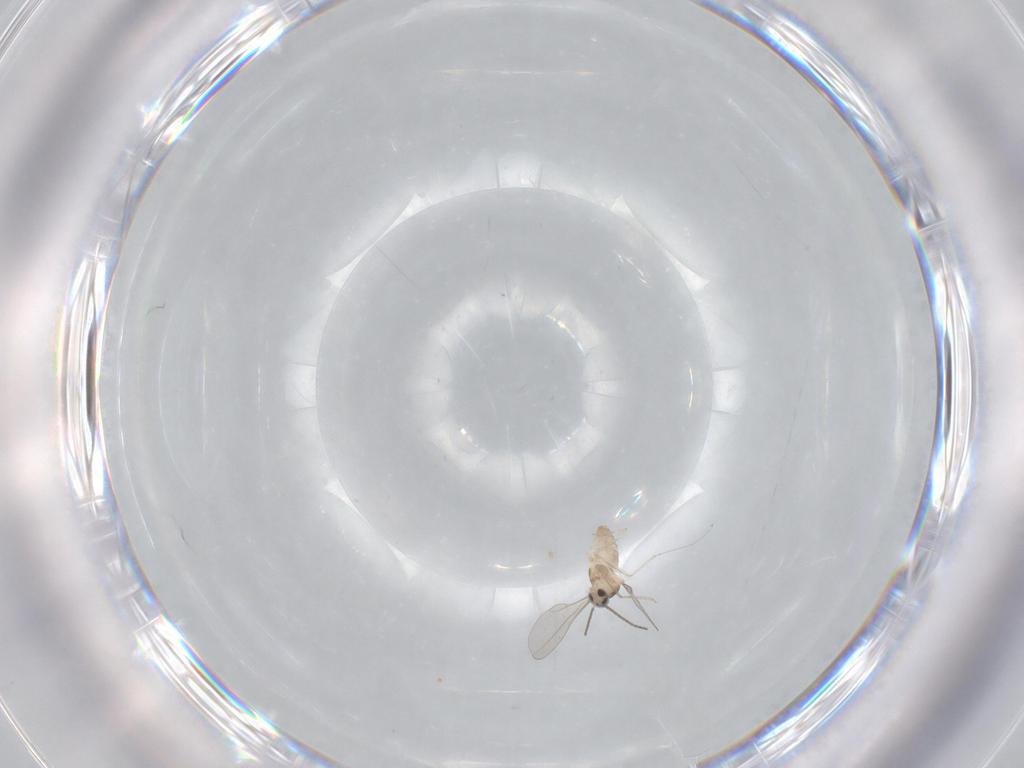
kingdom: Animalia
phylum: Arthropoda
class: Insecta
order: Diptera
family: Cecidomyiidae
